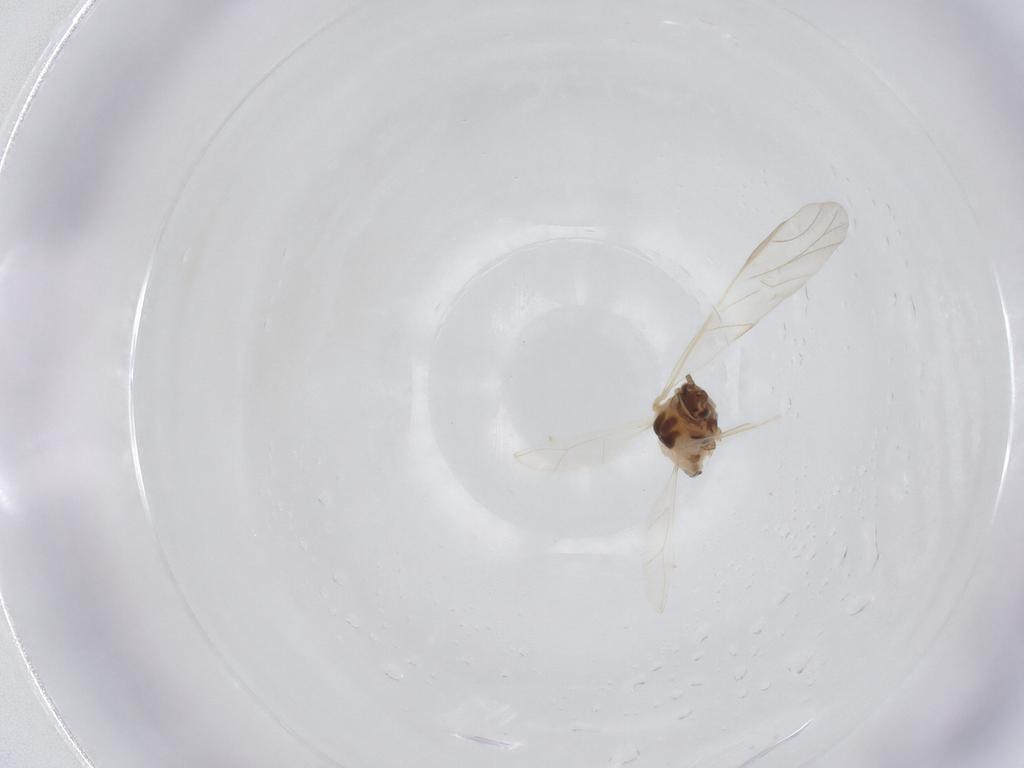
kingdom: Animalia
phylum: Arthropoda
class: Insecta
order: Hemiptera
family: Aphididae
